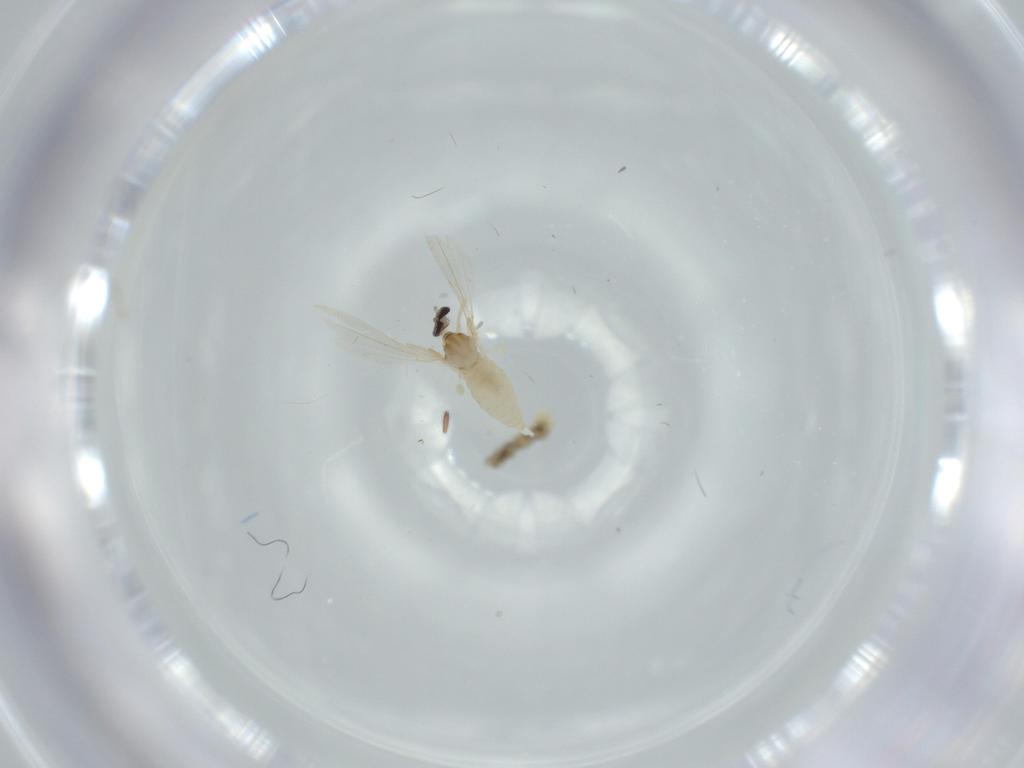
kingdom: Animalia
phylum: Arthropoda
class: Insecta
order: Diptera
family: Cecidomyiidae
